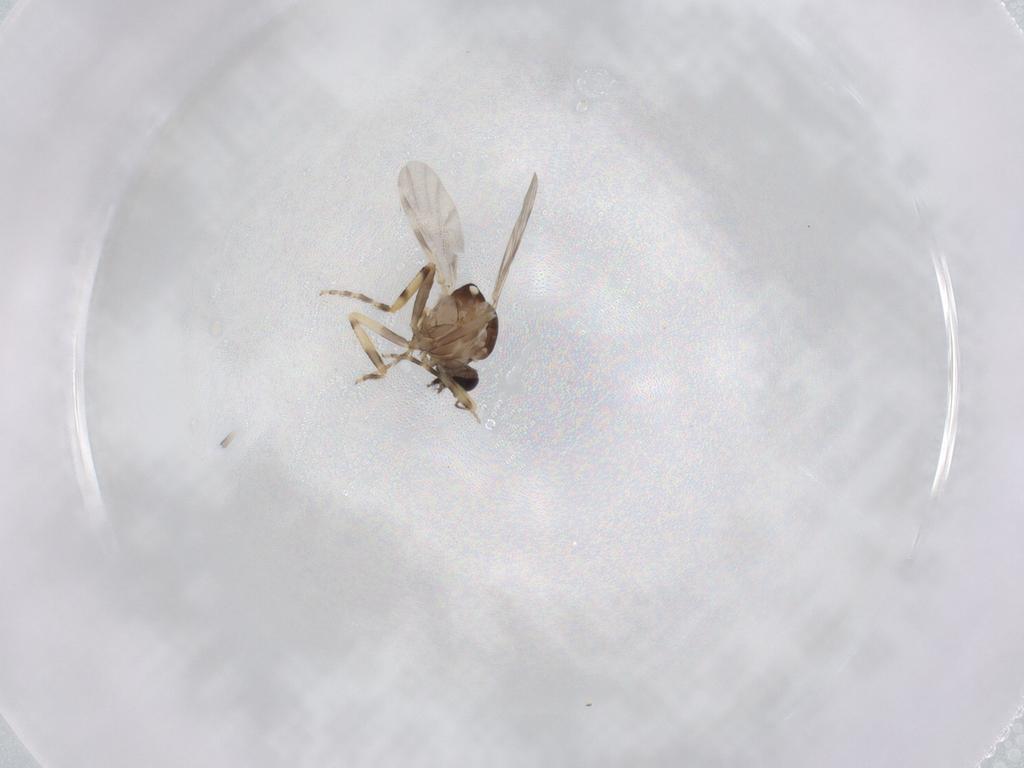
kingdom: Animalia
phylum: Arthropoda
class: Insecta
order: Diptera
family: Ceratopogonidae
